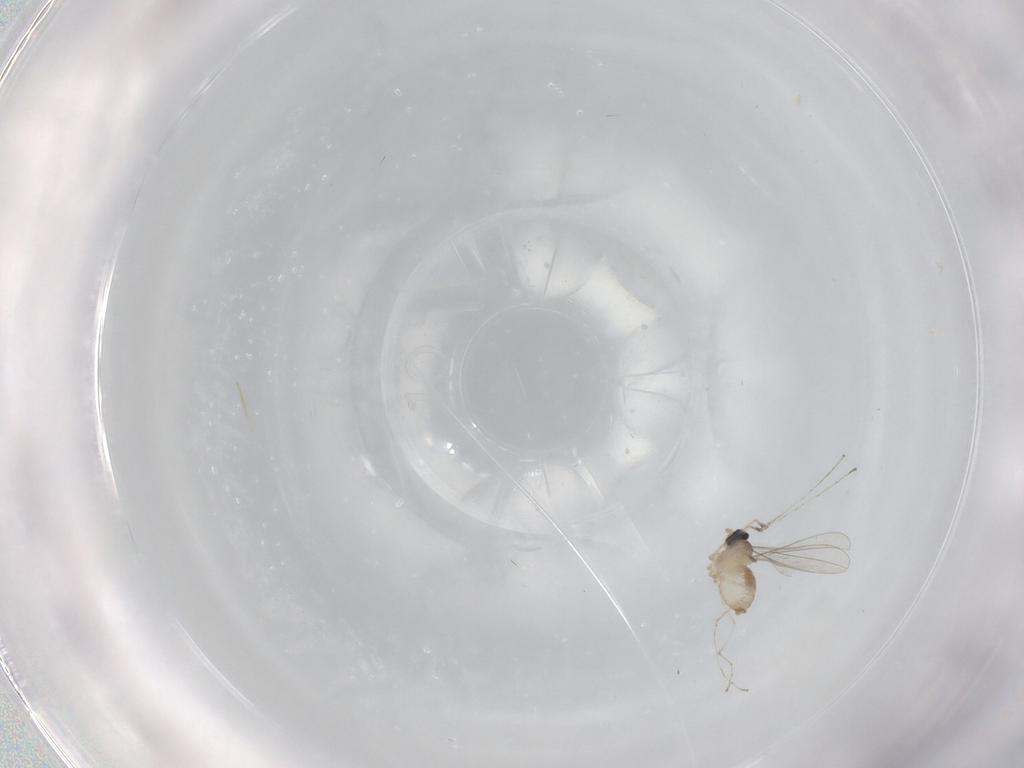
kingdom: Animalia
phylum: Arthropoda
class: Insecta
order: Diptera
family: Cecidomyiidae
